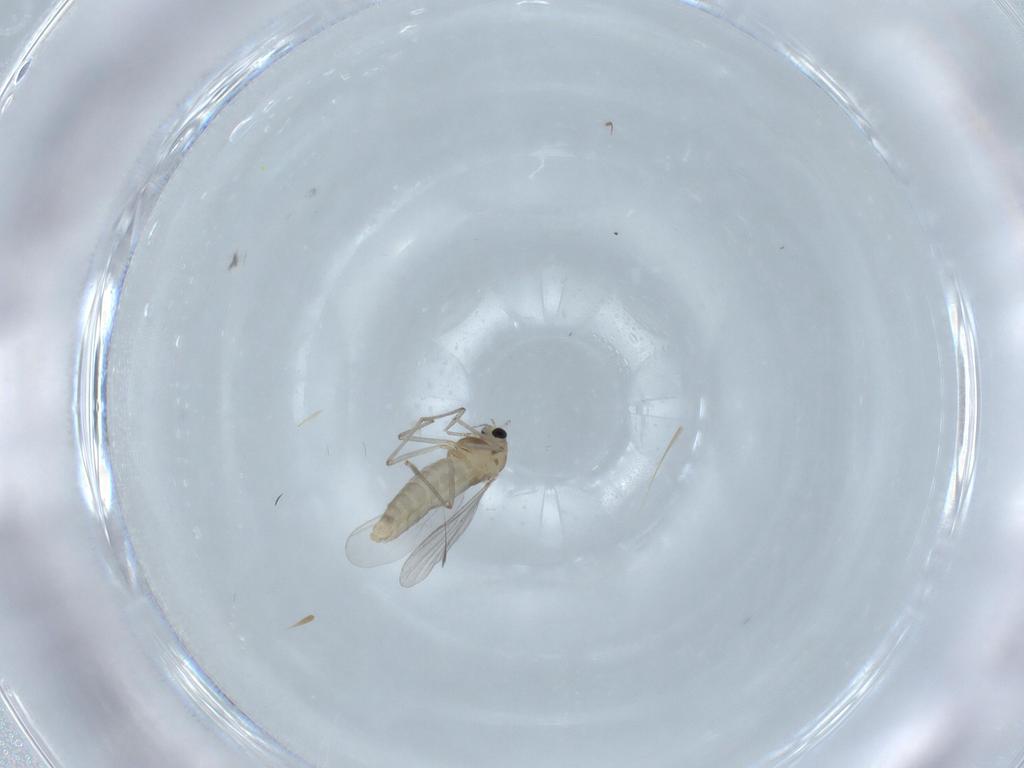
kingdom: Animalia
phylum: Arthropoda
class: Insecta
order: Diptera
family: Chironomidae
